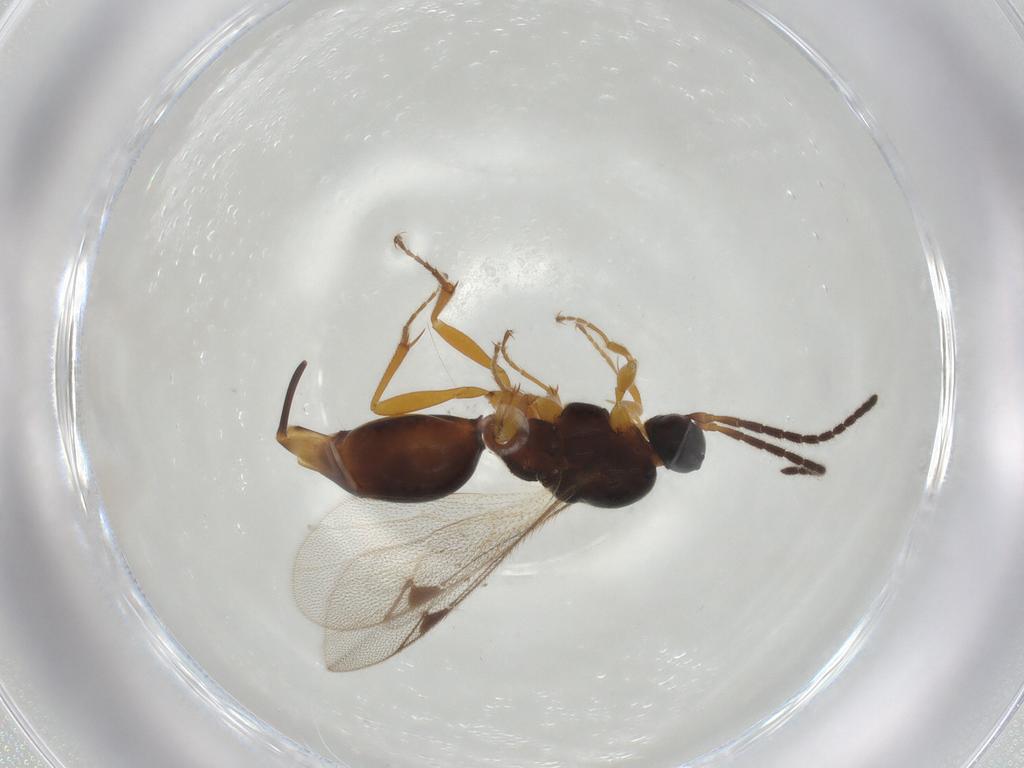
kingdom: Animalia
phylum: Arthropoda
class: Insecta
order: Hymenoptera
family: Proctotrupidae
